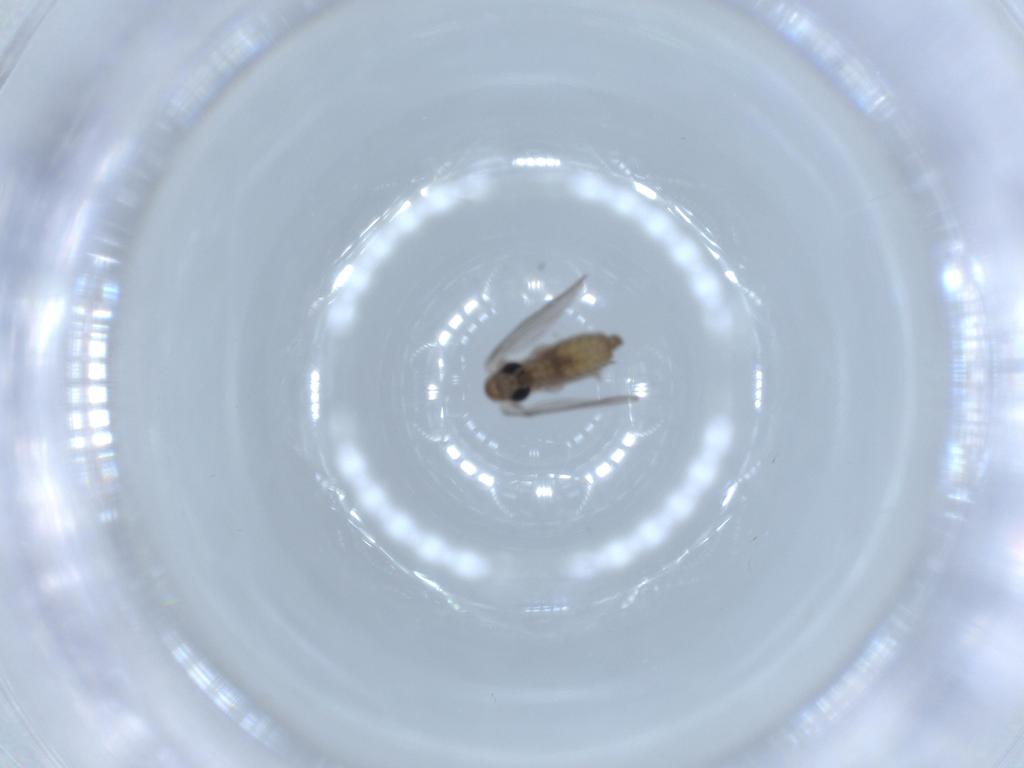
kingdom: Animalia
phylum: Arthropoda
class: Insecta
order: Diptera
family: Psychodidae
